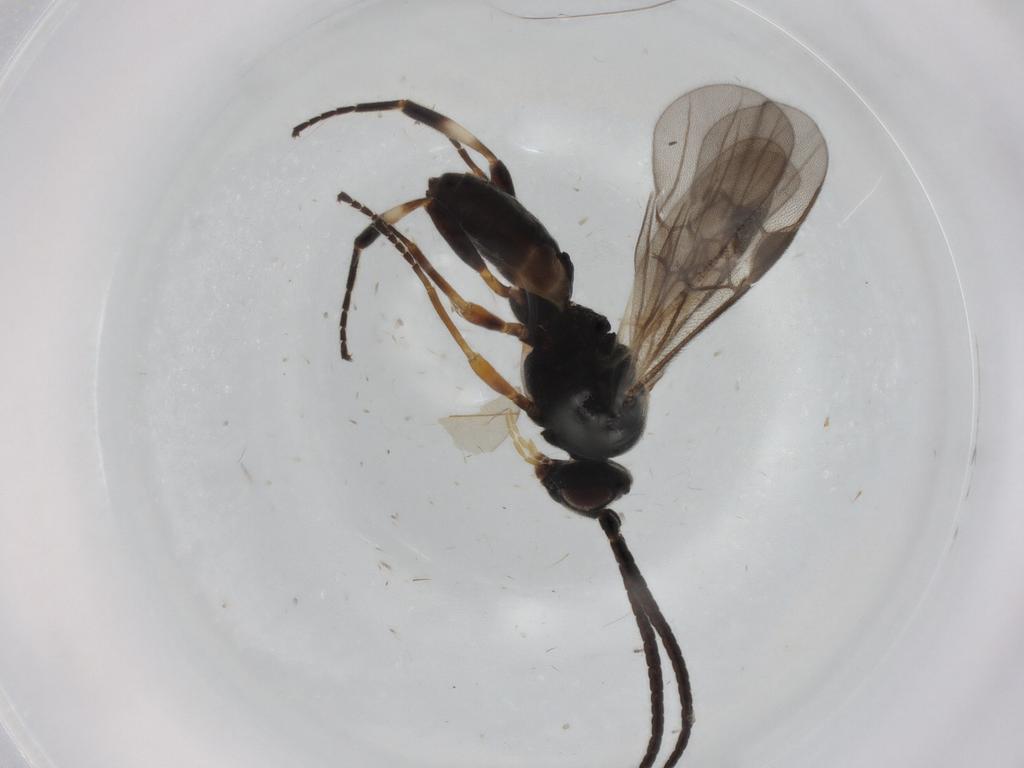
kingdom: Animalia
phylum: Arthropoda
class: Insecta
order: Hymenoptera
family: Braconidae
